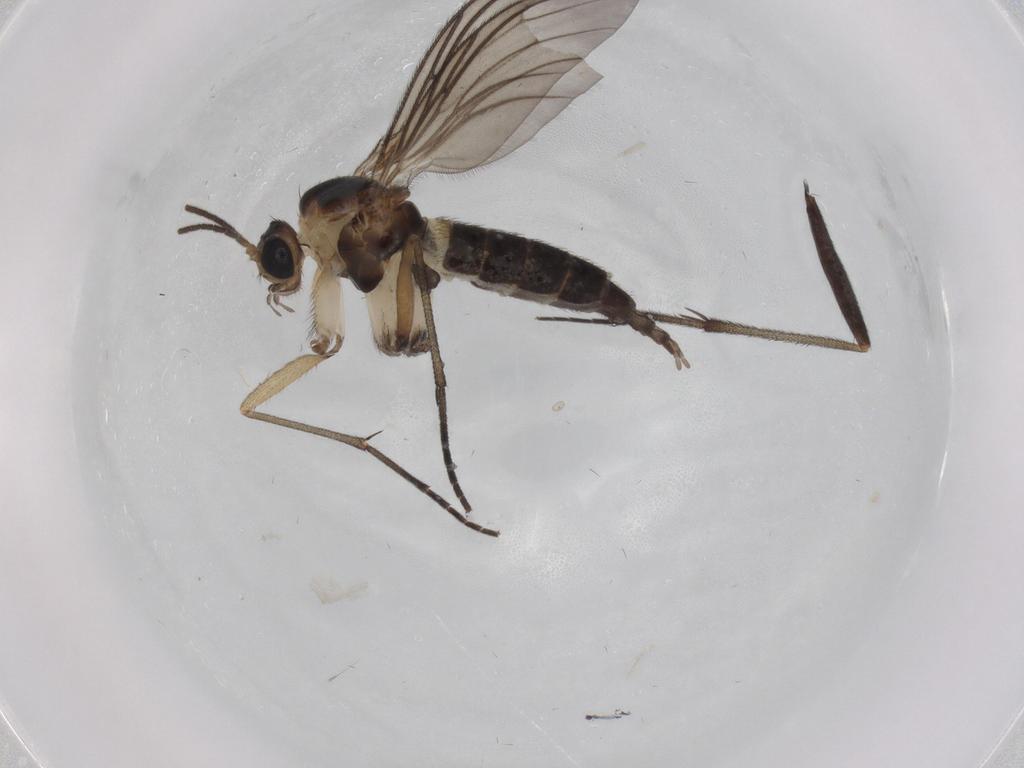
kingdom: Animalia
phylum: Arthropoda
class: Insecta
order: Diptera
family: Sciaridae
